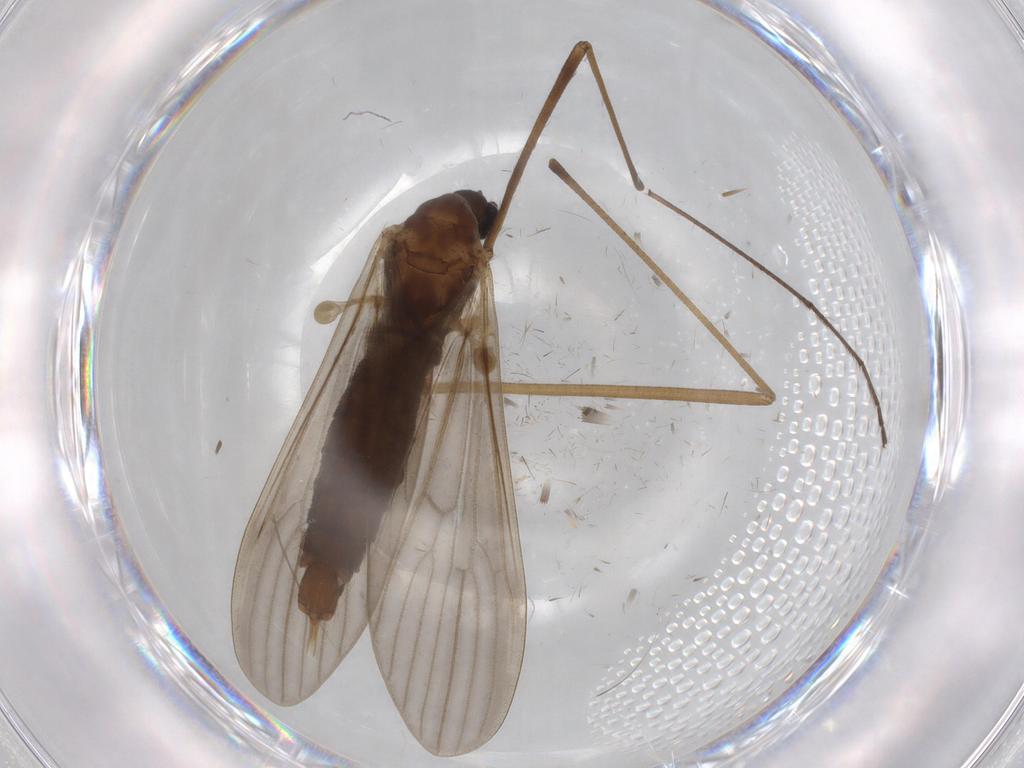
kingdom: Animalia
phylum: Arthropoda
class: Insecta
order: Diptera
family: Limoniidae
